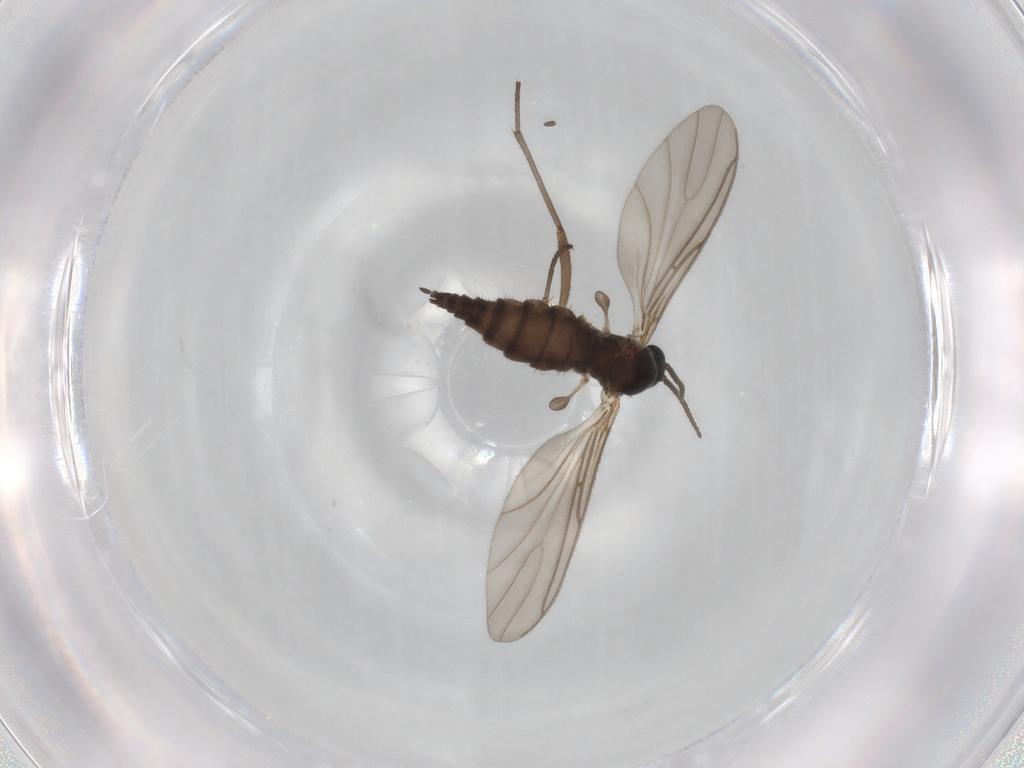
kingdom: Animalia
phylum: Arthropoda
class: Insecta
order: Diptera
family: Sciaridae
